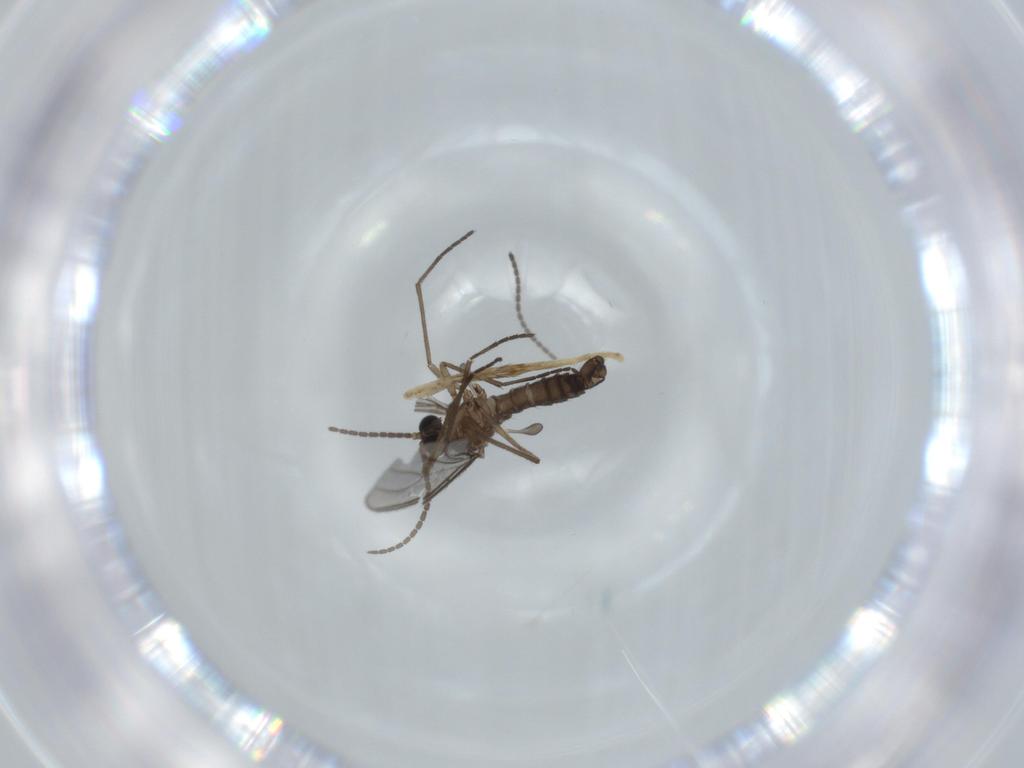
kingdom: Animalia
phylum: Arthropoda
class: Insecta
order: Diptera
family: Sciaridae
